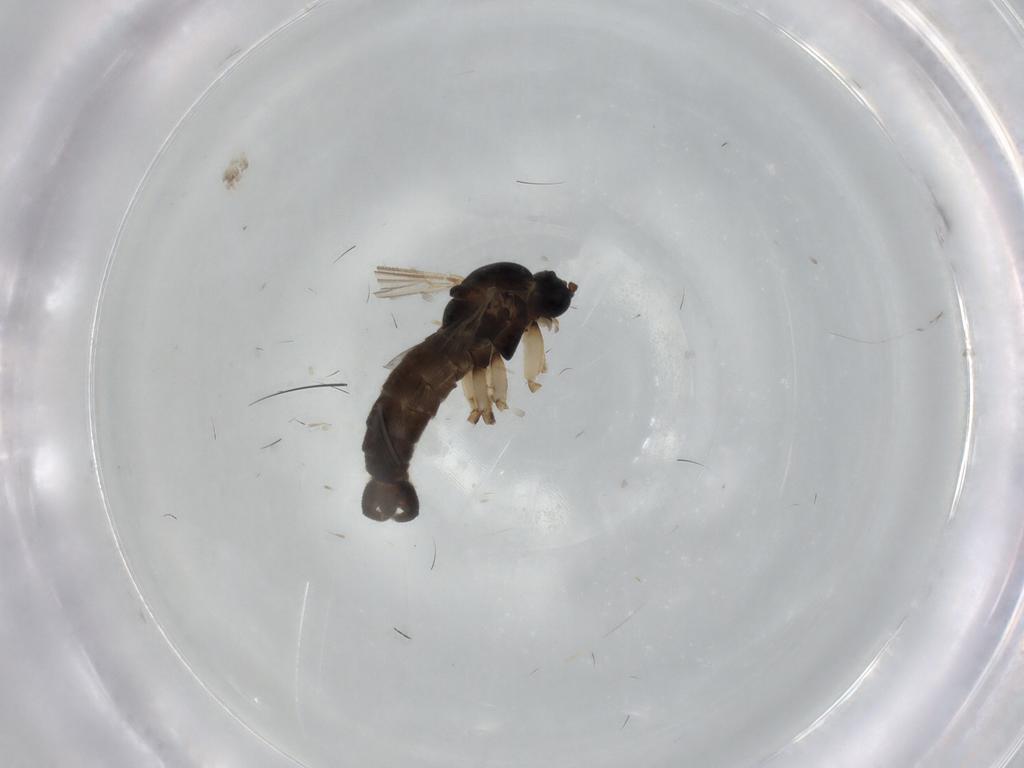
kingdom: Animalia
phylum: Arthropoda
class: Insecta
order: Diptera
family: Sciaridae
